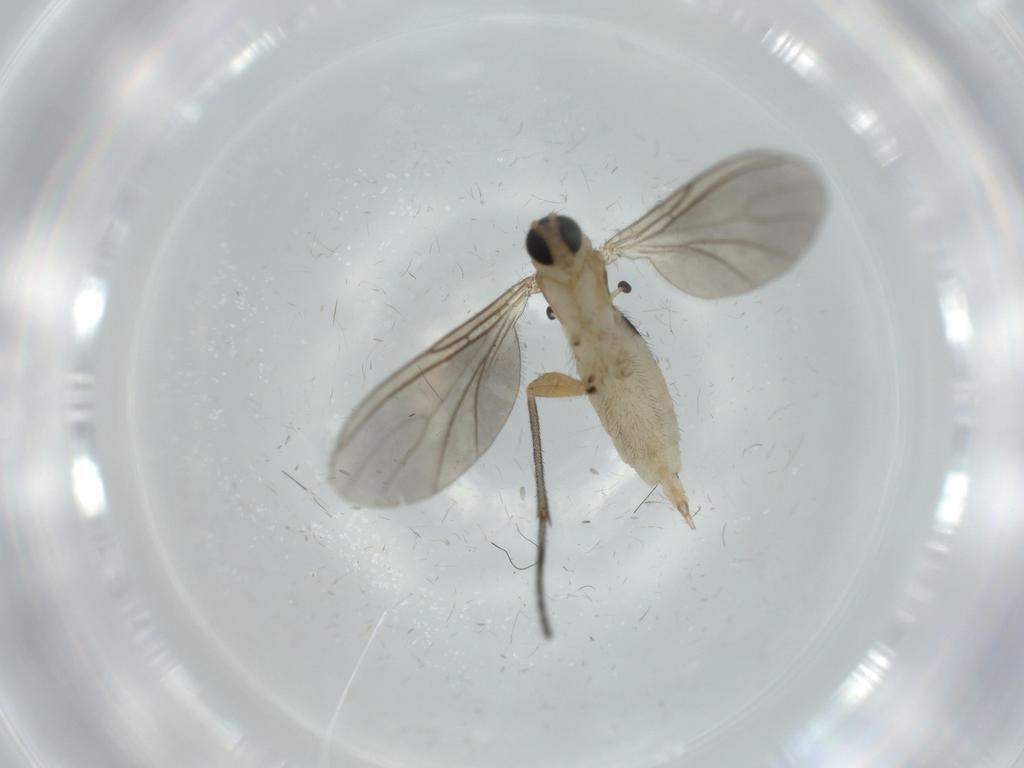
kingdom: Animalia
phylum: Arthropoda
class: Insecta
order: Diptera
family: Sciaridae
